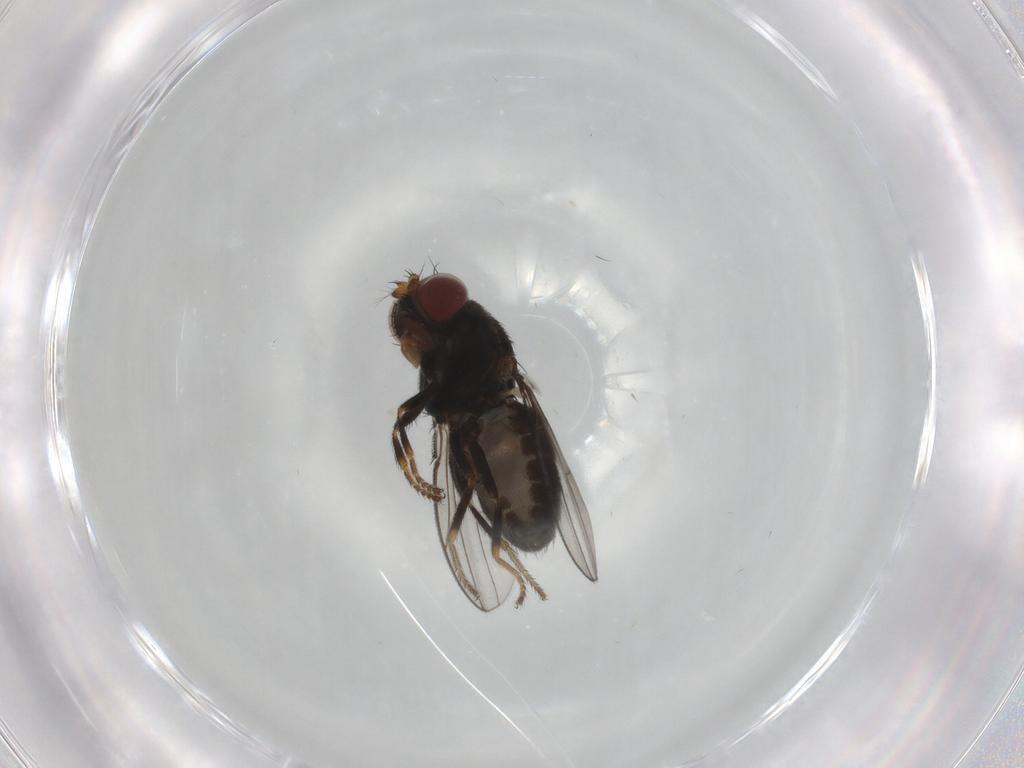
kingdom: Animalia
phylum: Arthropoda
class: Insecta
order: Diptera
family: Ephydridae
